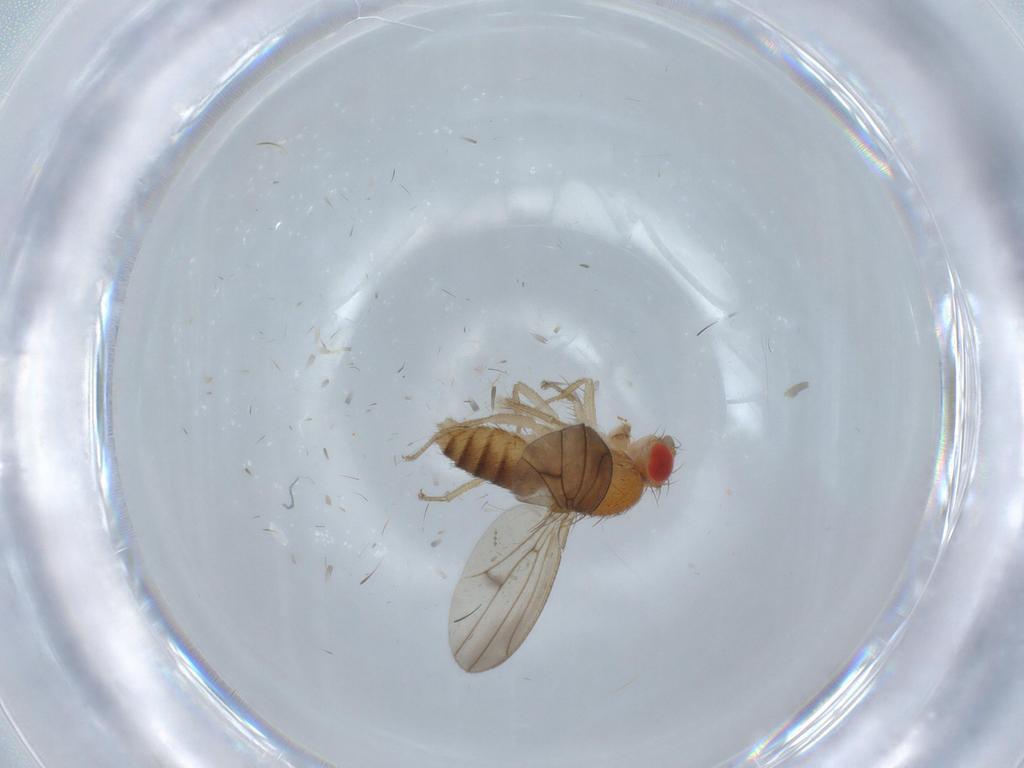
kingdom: Animalia
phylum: Arthropoda
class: Insecta
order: Diptera
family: Drosophilidae
